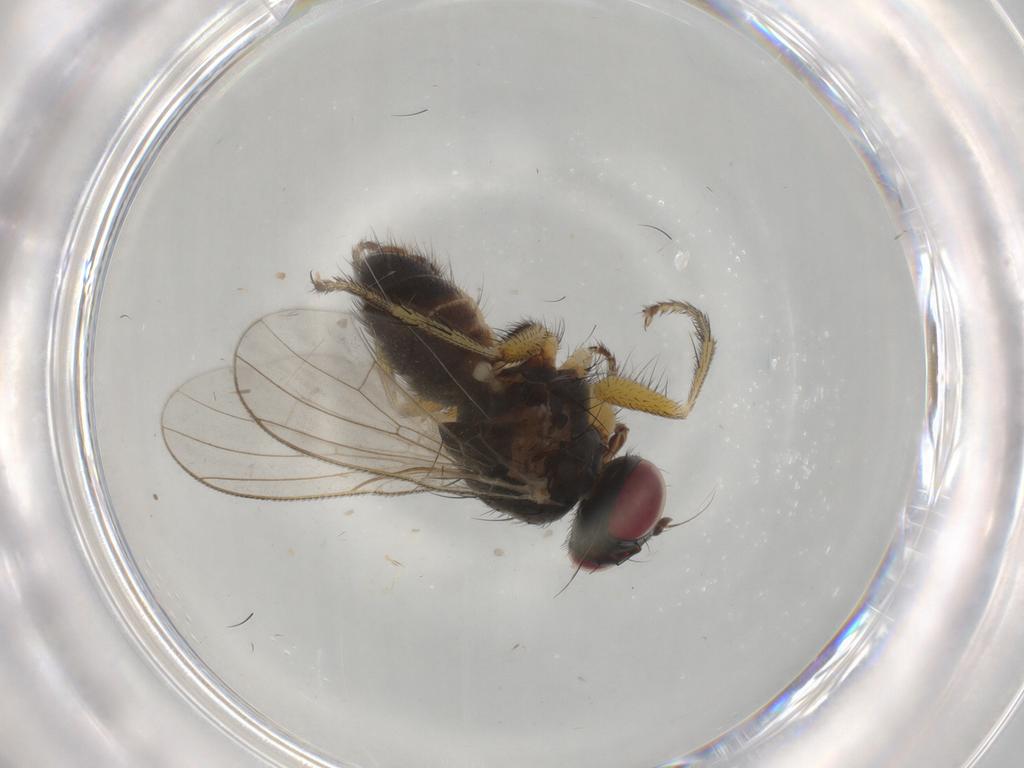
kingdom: Animalia
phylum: Arthropoda
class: Insecta
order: Diptera
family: Muscidae
